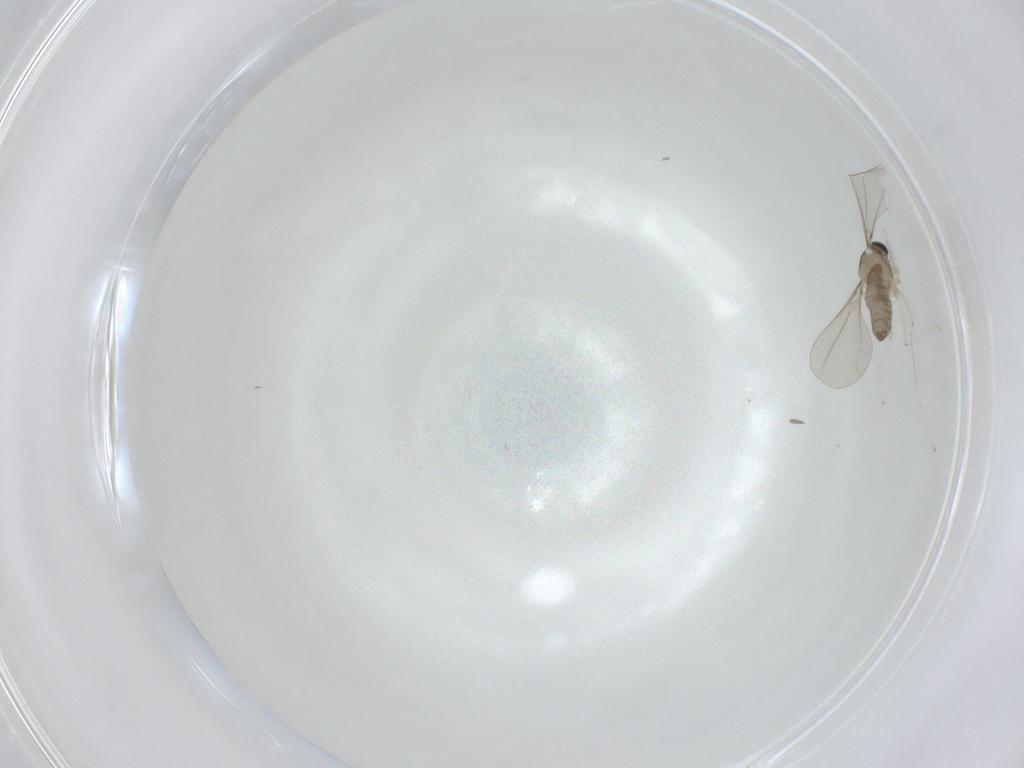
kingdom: Animalia
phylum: Arthropoda
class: Insecta
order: Diptera
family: Cecidomyiidae
